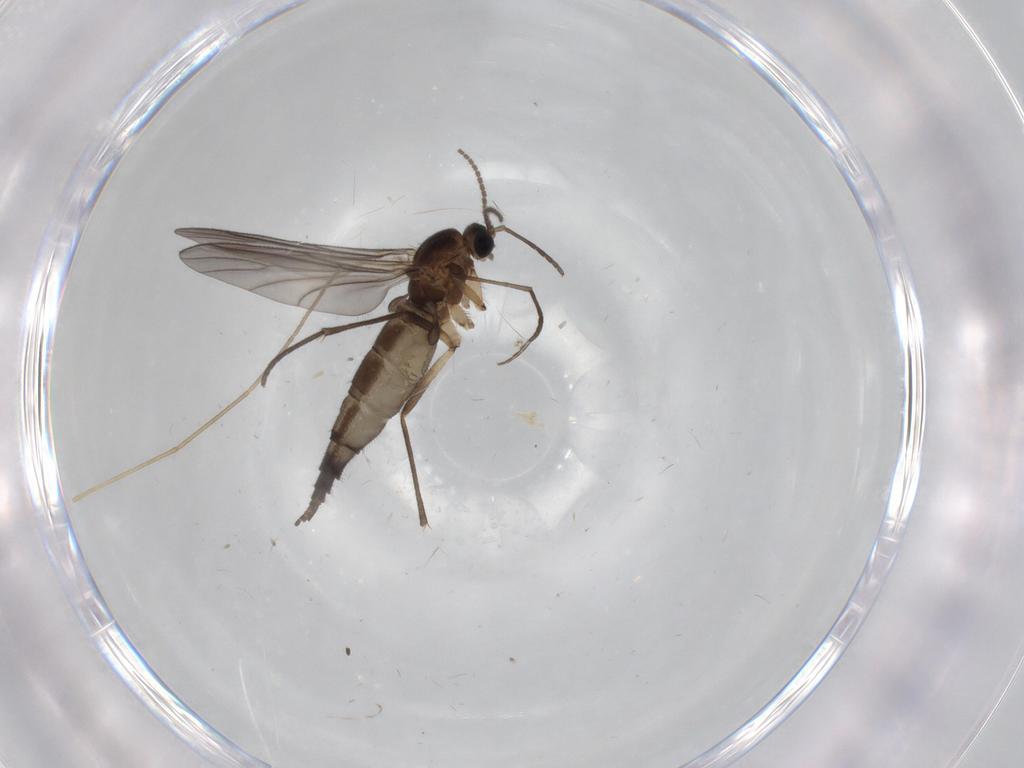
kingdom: Animalia
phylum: Arthropoda
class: Insecta
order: Diptera
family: Sciaridae
